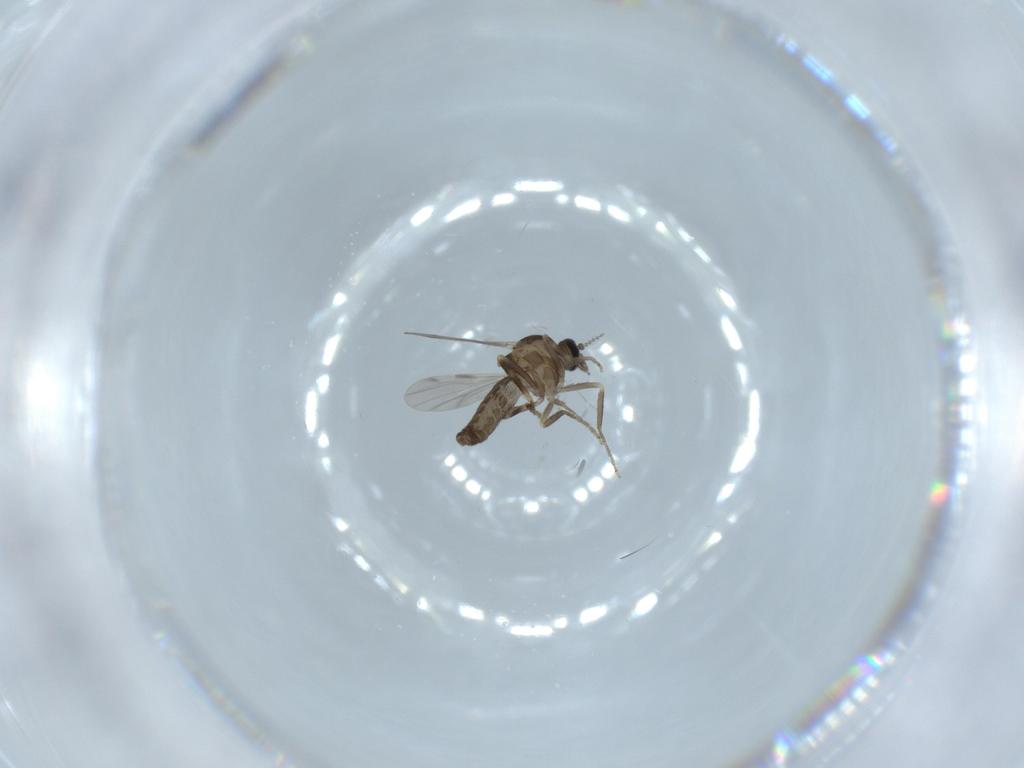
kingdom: Animalia
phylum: Arthropoda
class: Insecta
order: Diptera
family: Ceratopogonidae
